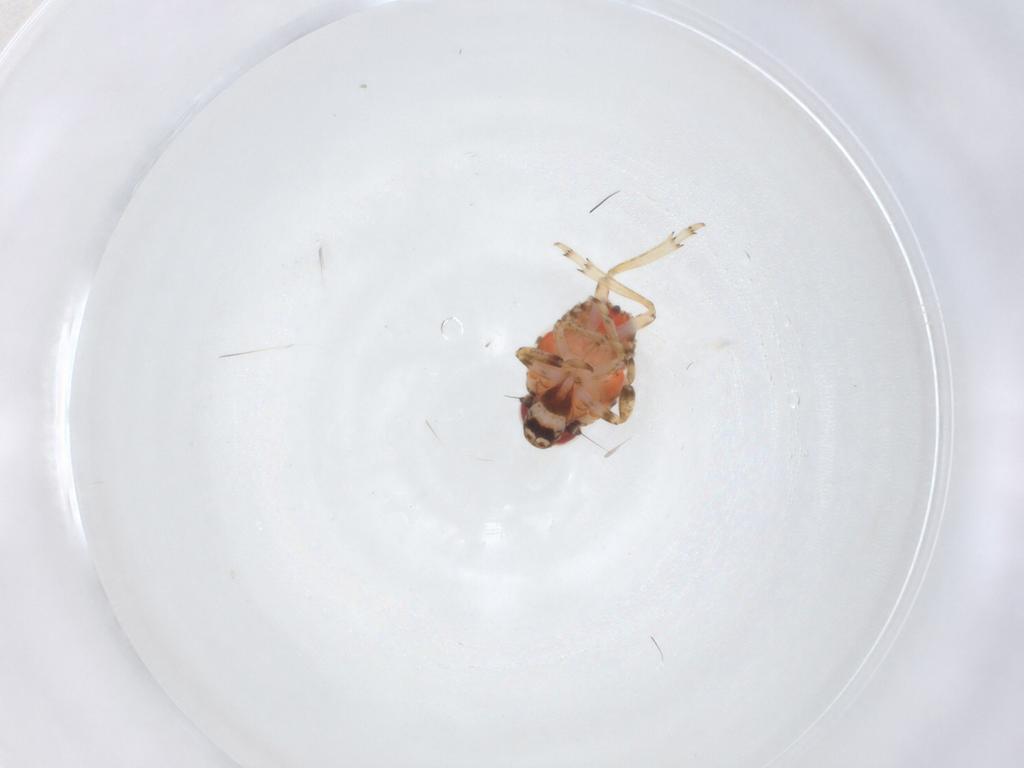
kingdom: Animalia
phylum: Arthropoda
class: Insecta
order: Hemiptera
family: Issidae
